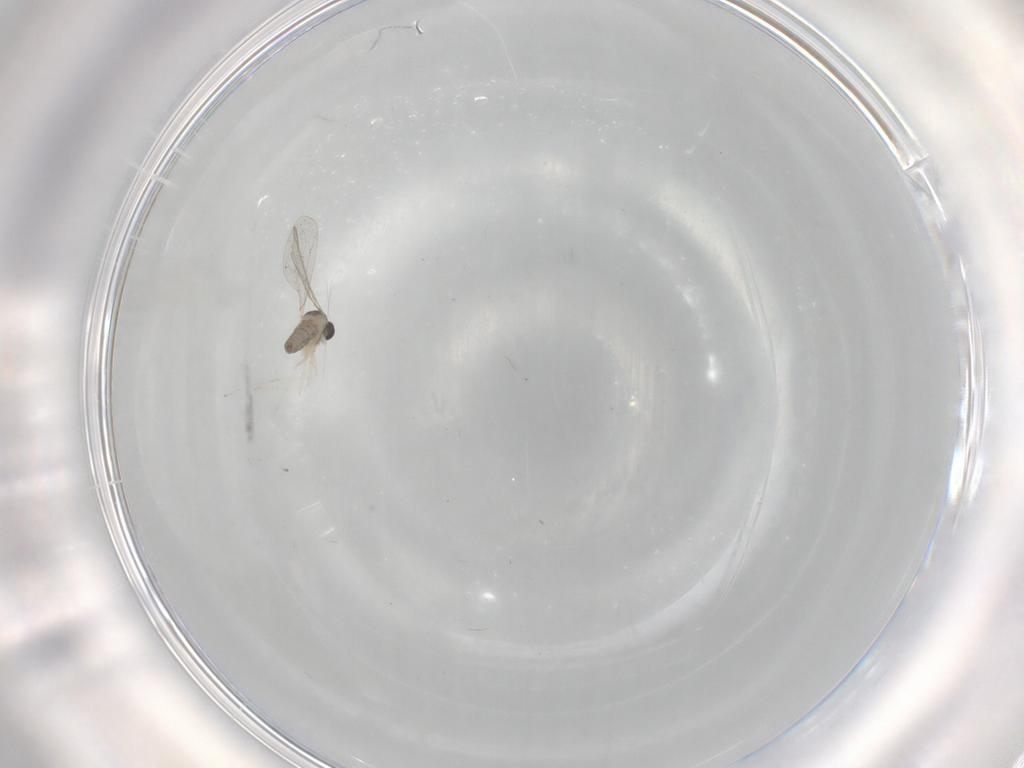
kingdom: Animalia
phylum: Arthropoda
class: Insecta
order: Diptera
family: Cecidomyiidae
